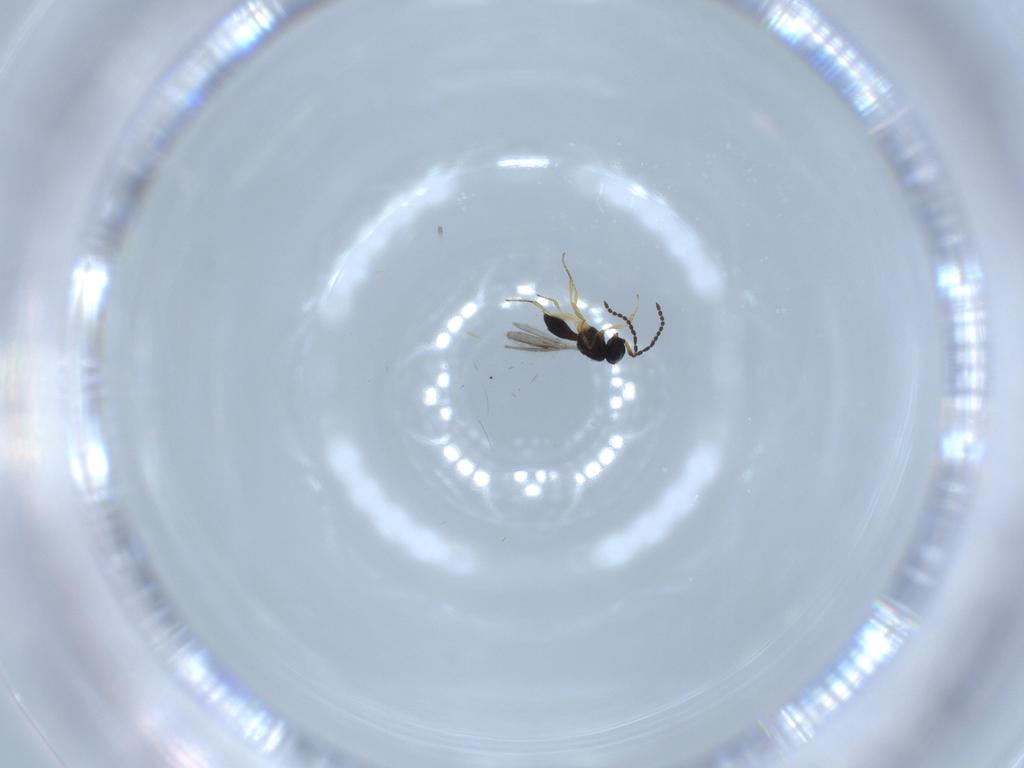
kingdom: Animalia
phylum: Arthropoda
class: Insecta
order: Hymenoptera
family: Scelionidae
